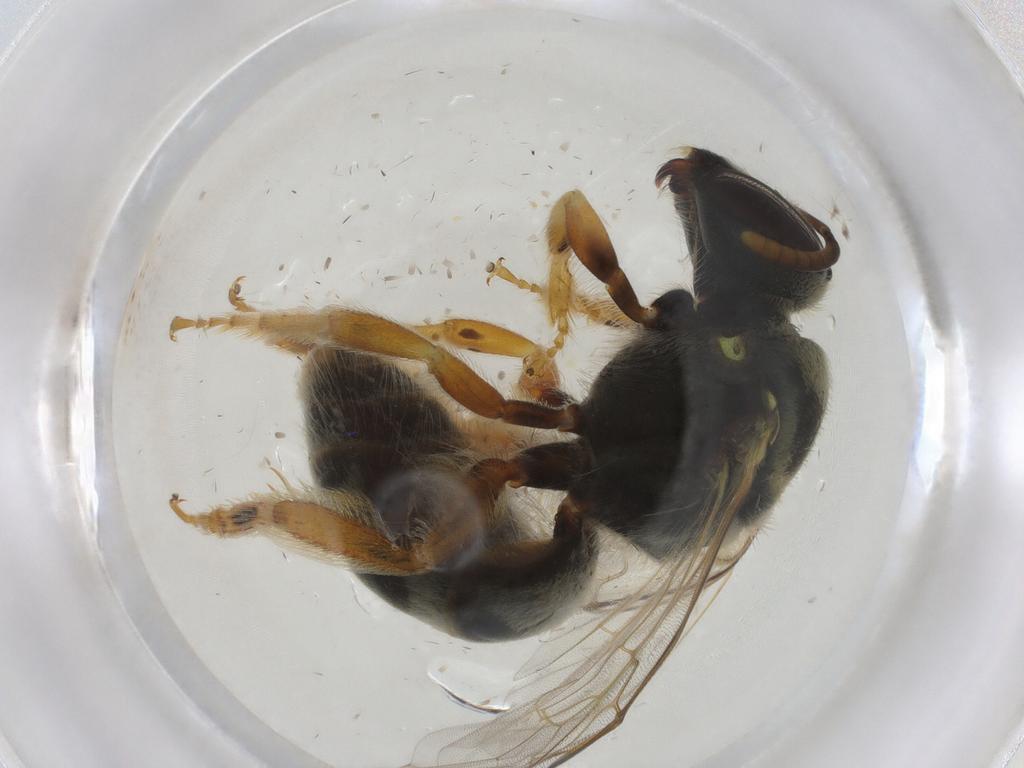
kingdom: Animalia
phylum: Arthropoda
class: Insecta
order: Hymenoptera
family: Halictidae
